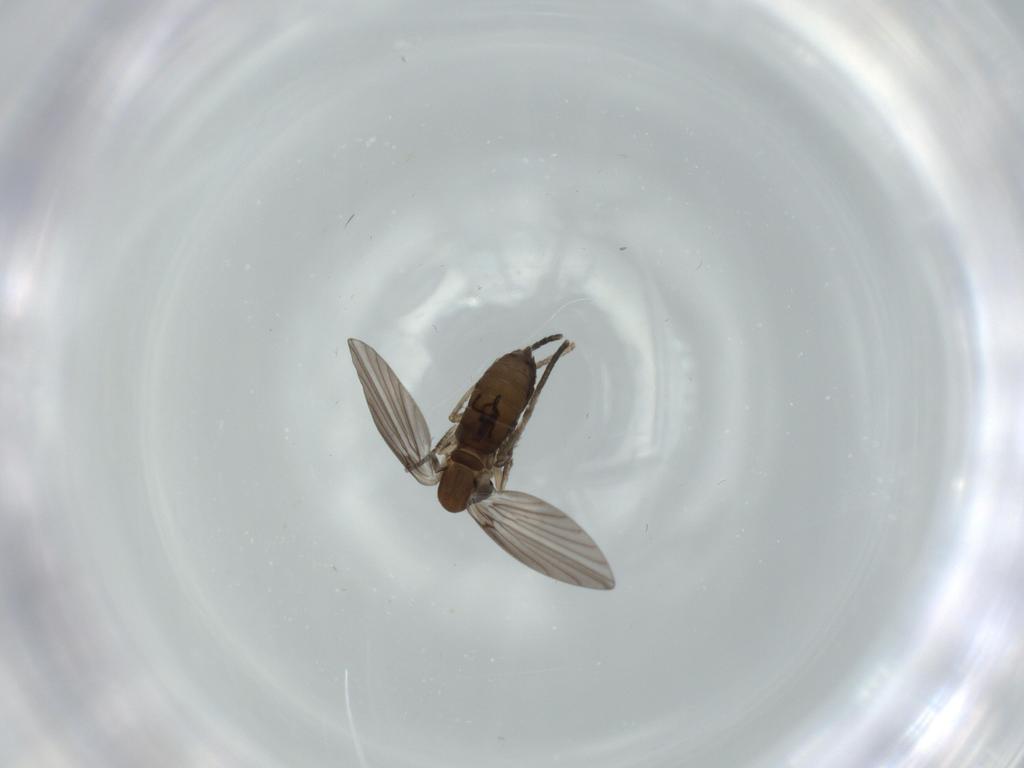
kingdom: Animalia
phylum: Arthropoda
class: Insecta
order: Diptera
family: Psychodidae
